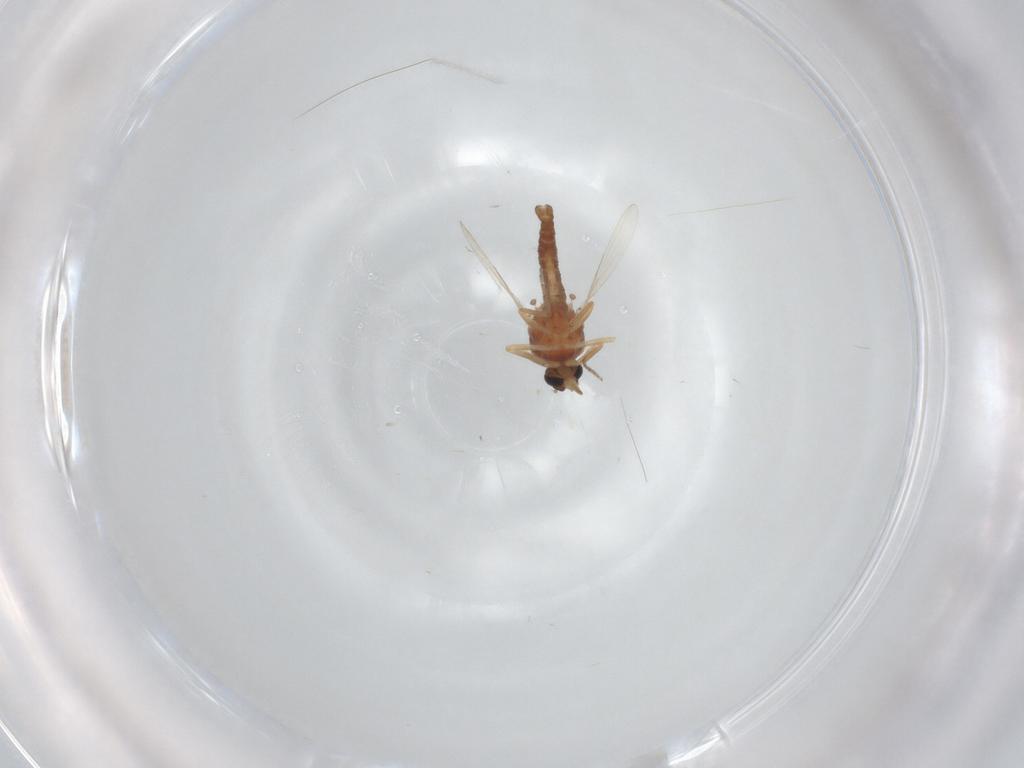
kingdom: Animalia
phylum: Arthropoda
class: Insecta
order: Diptera
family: Ceratopogonidae
